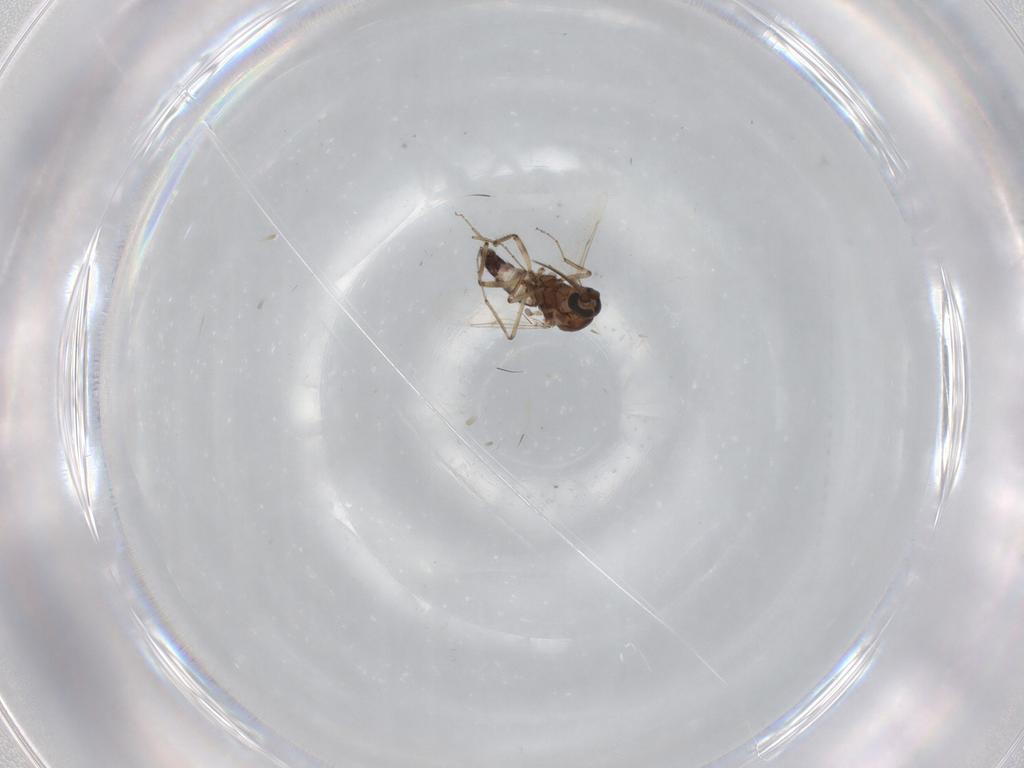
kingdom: Animalia
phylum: Arthropoda
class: Insecta
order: Diptera
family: Ceratopogonidae
